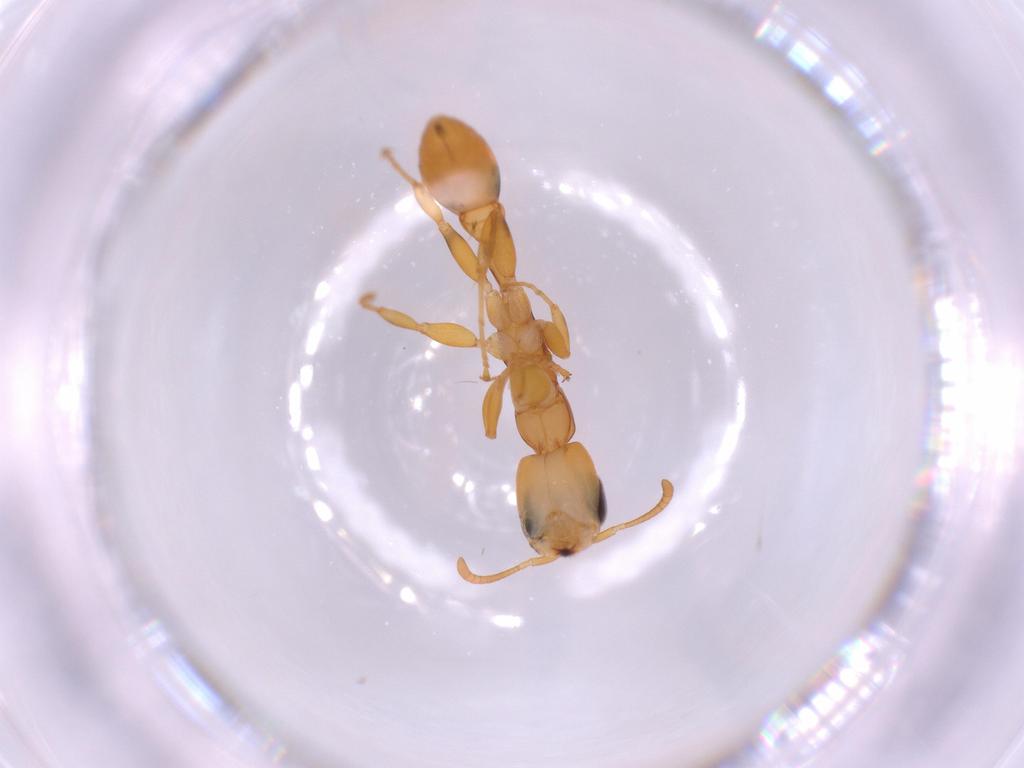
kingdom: Animalia
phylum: Arthropoda
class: Insecta
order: Hymenoptera
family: Formicidae
